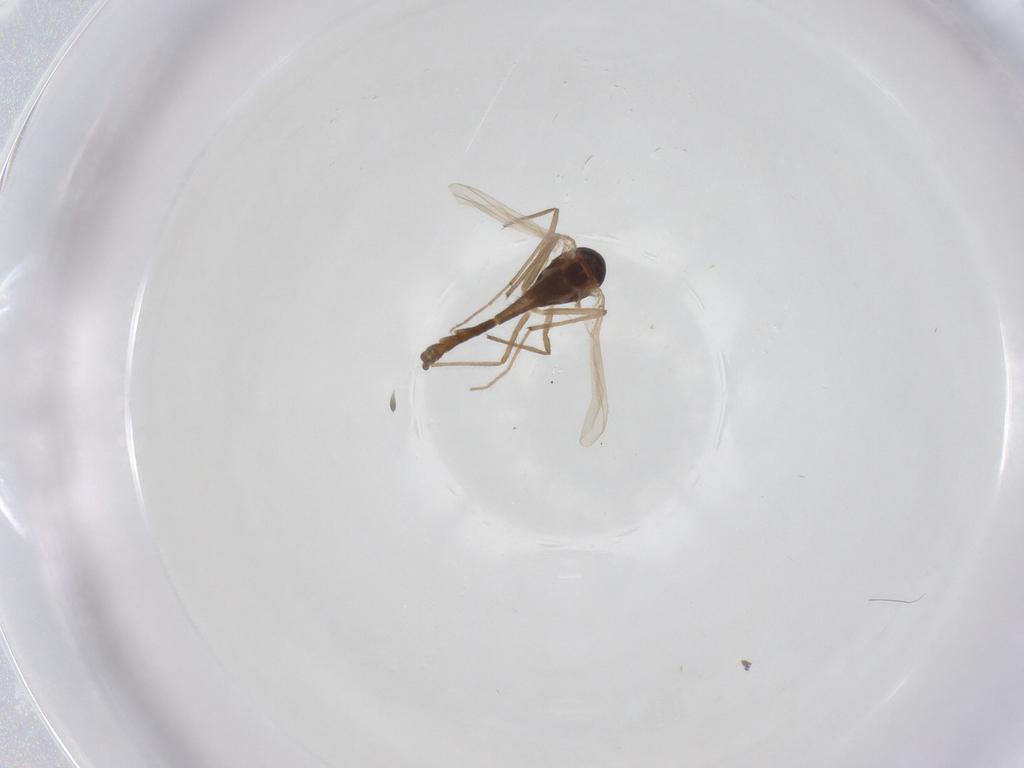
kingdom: Animalia
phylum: Arthropoda
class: Insecta
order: Diptera
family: Chironomidae
